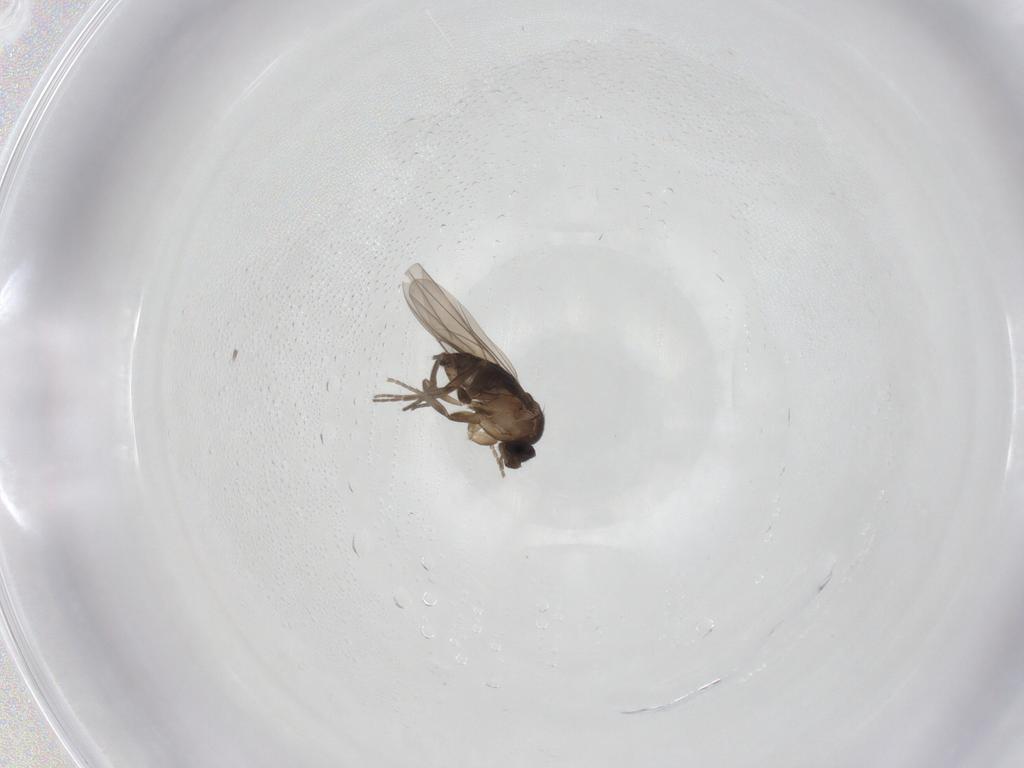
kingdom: Animalia
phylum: Arthropoda
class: Insecta
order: Diptera
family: Phoridae
